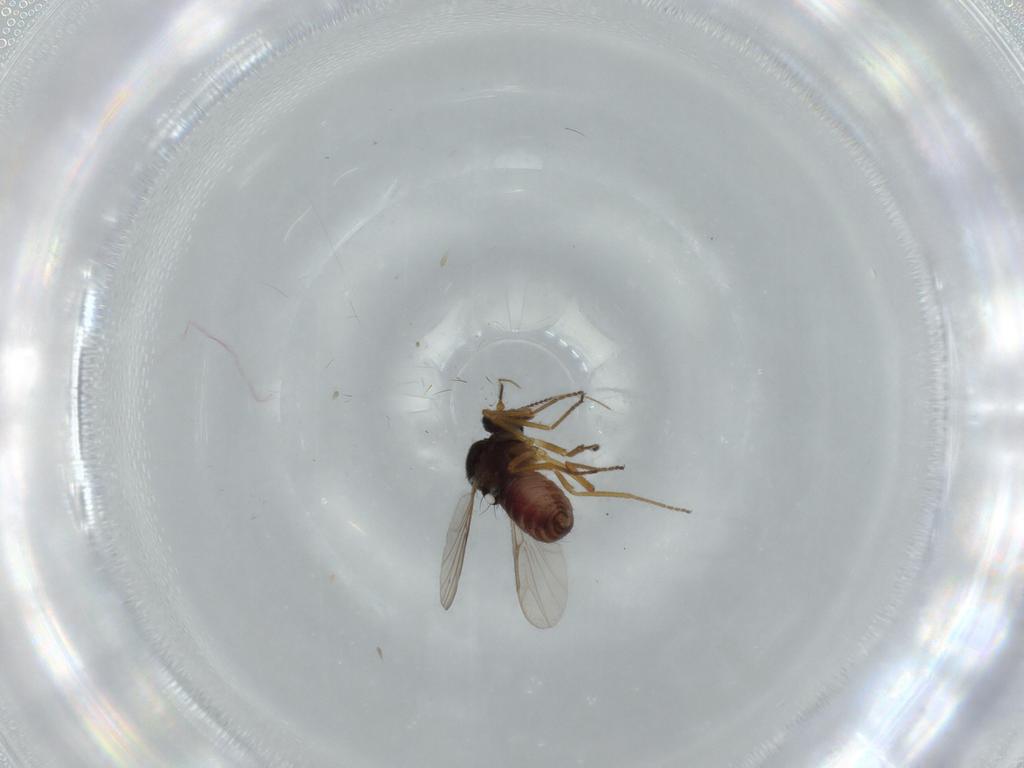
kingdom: Animalia
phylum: Arthropoda
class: Insecta
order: Diptera
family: Ceratopogonidae
